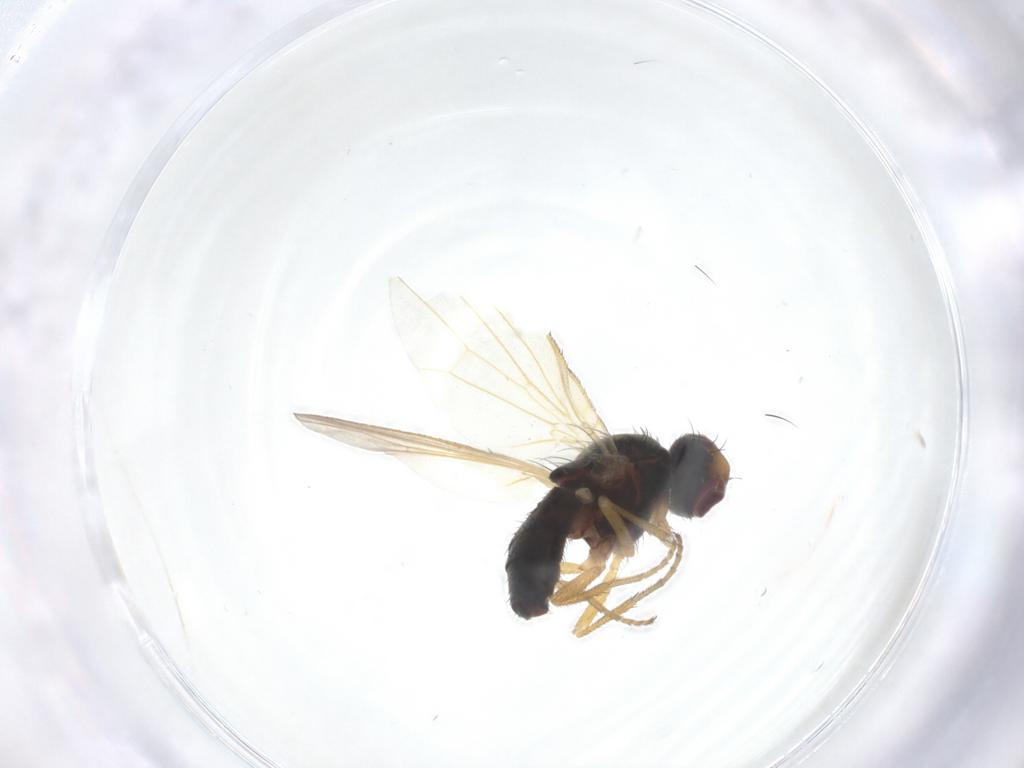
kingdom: Animalia
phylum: Arthropoda
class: Insecta
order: Diptera
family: Heleomyzidae
